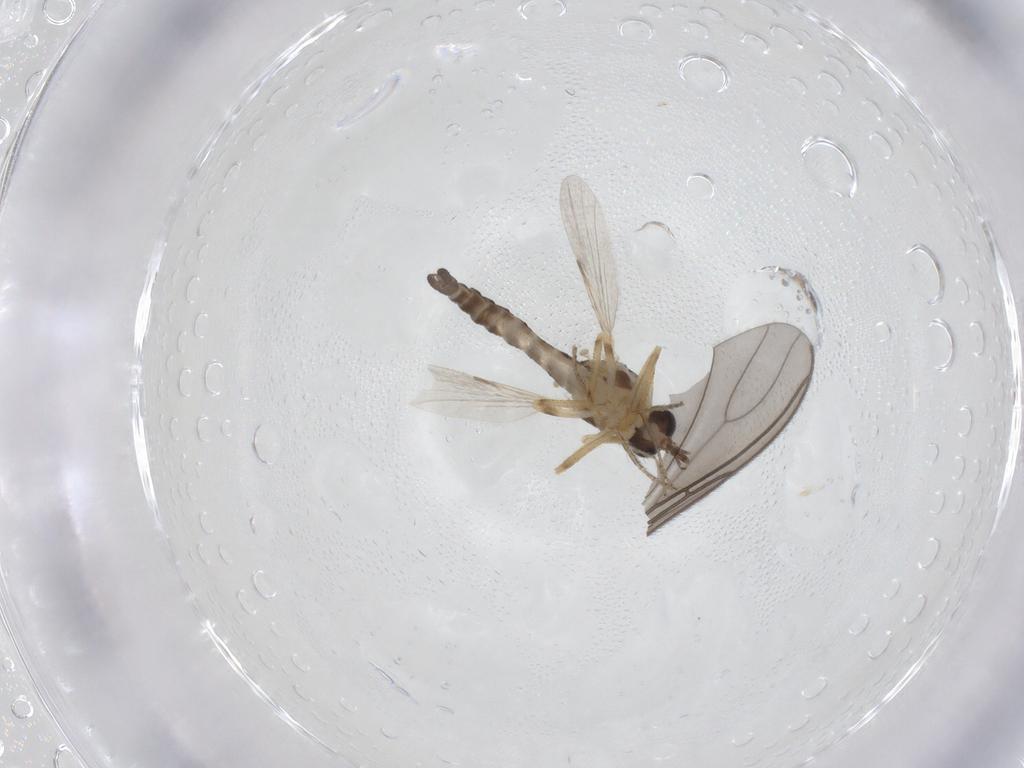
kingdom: Animalia
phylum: Arthropoda
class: Insecta
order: Diptera
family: Ceratopogonidae
